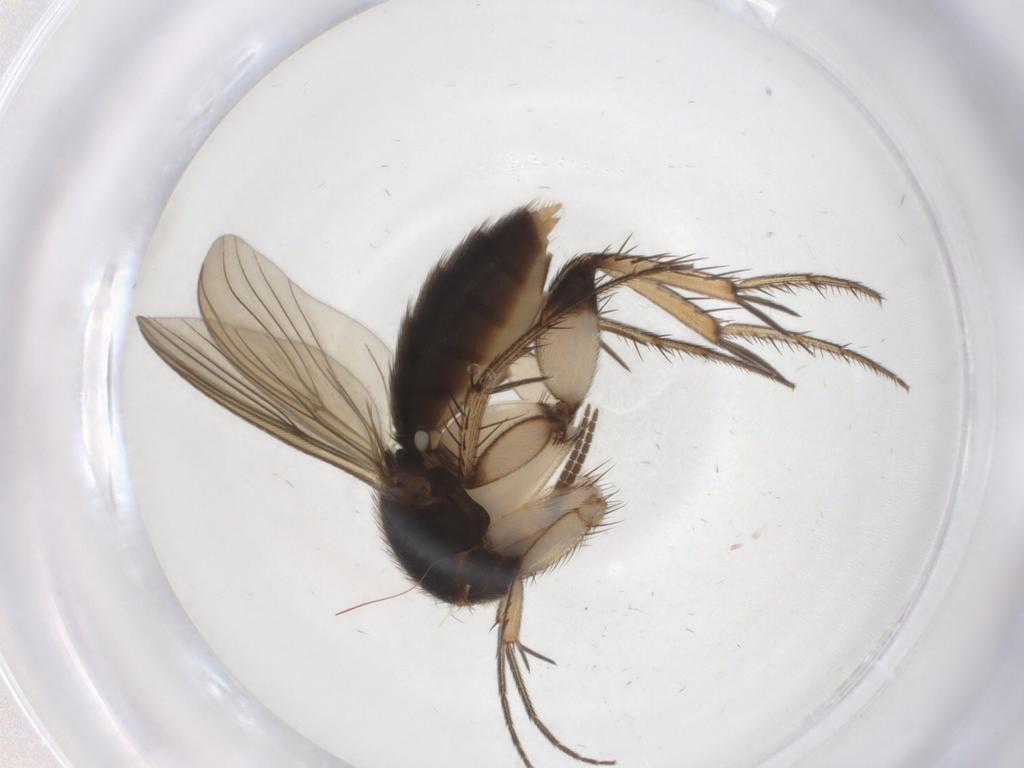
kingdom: Animalia
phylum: Arthropoda
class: Insecta
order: Diptera
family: Mycetophilidae
